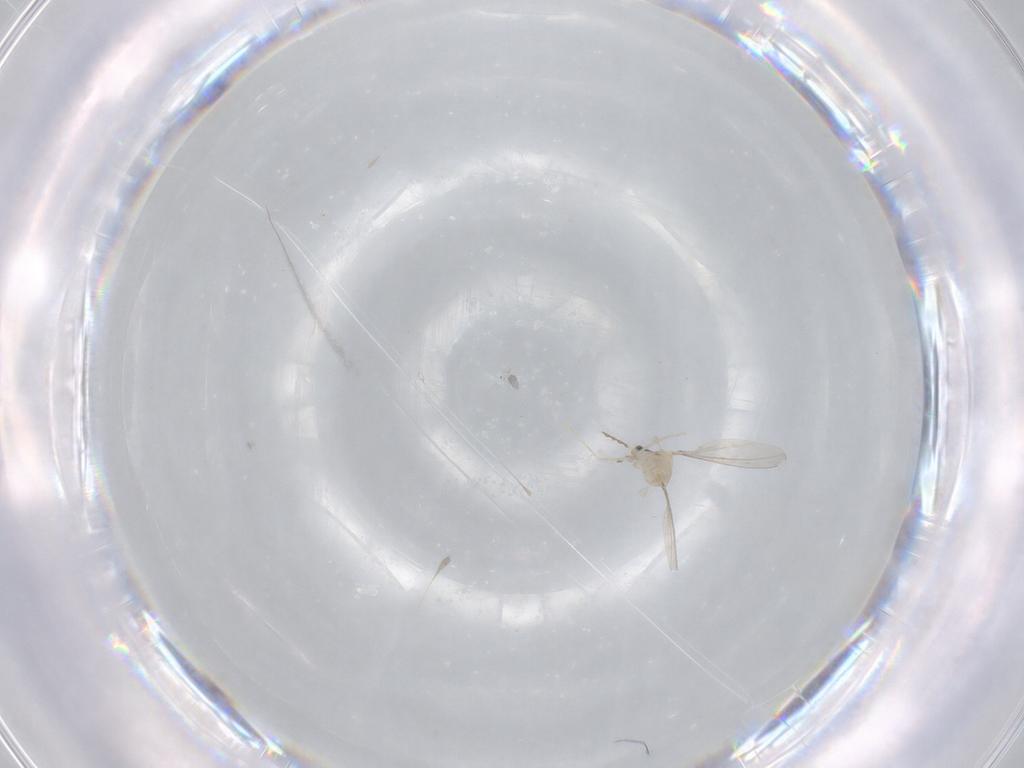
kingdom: Animalia
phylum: Arthropoda
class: Insecta
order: Diptera
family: Cecidomyiidae
